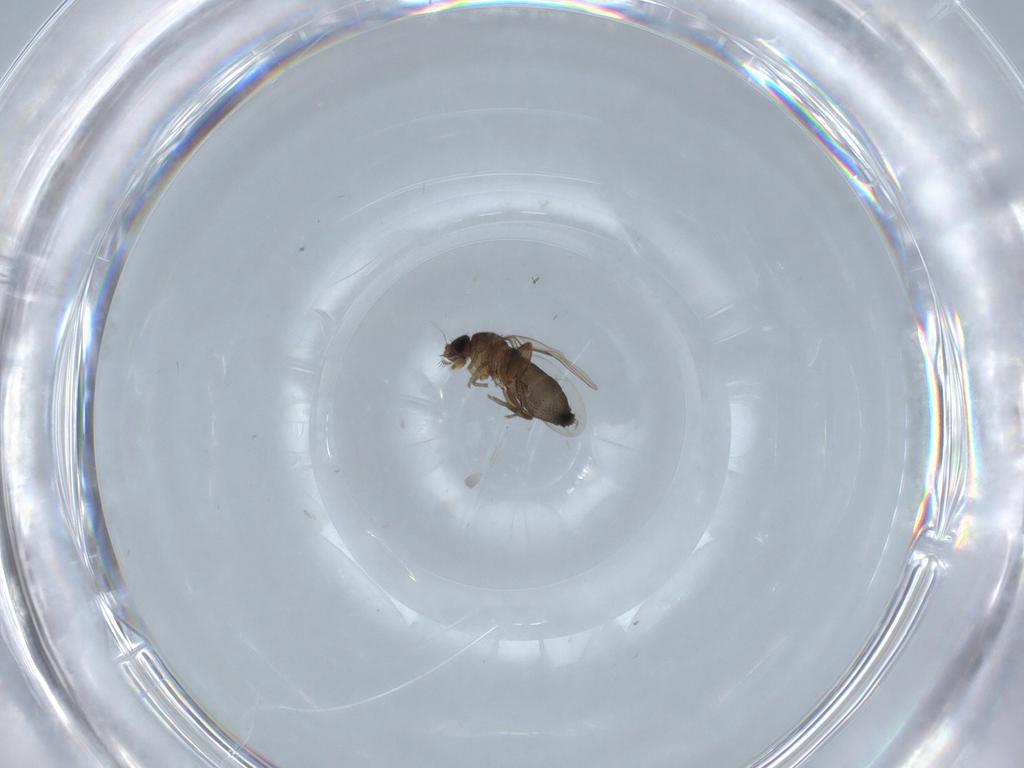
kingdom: Animalia
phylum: Arthropoda
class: Insecta
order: Diptera
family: Phoridae
